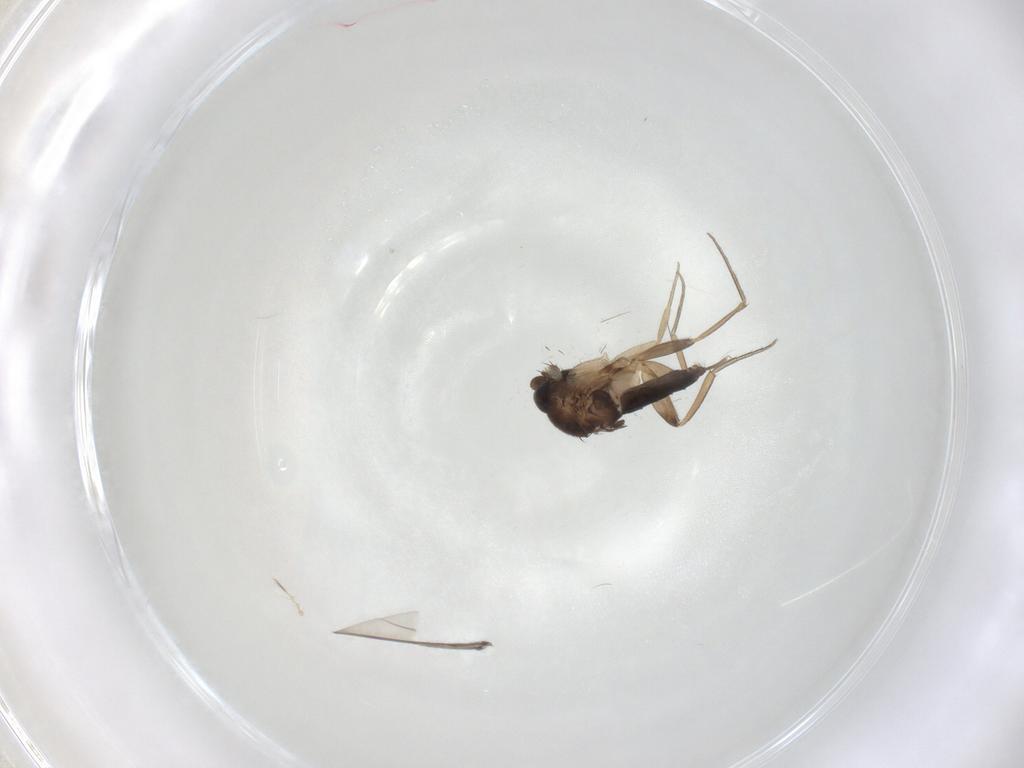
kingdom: Animalia
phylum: Arthropoda
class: Insecta
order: Diptera
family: Phoridae
